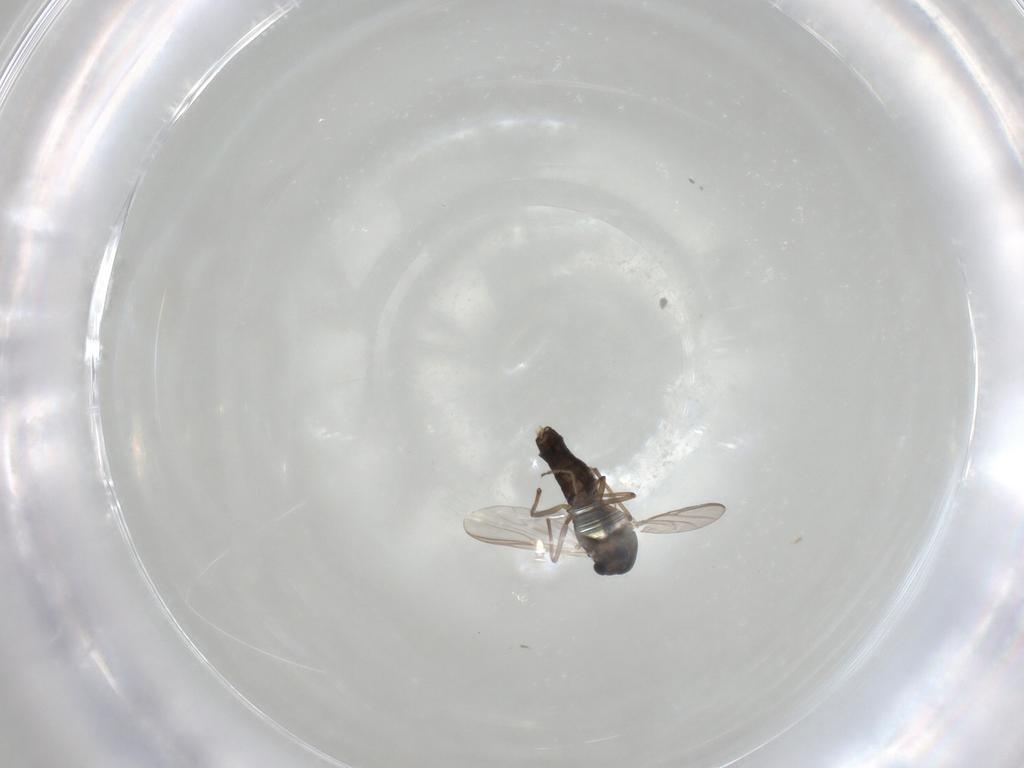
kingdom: Animalia
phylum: Arthropoda
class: Insecta
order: Diptera
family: Chironomidae
